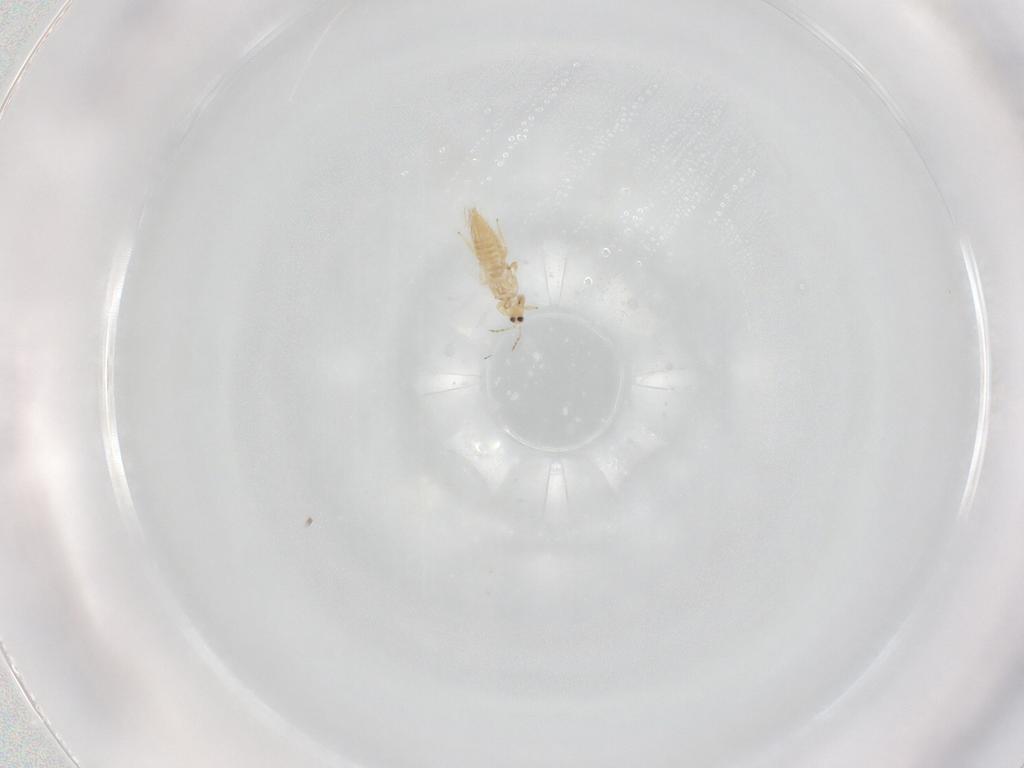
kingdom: Animalia
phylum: Arthropoda
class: Insecta
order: Thysanoptera
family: Thripidae
